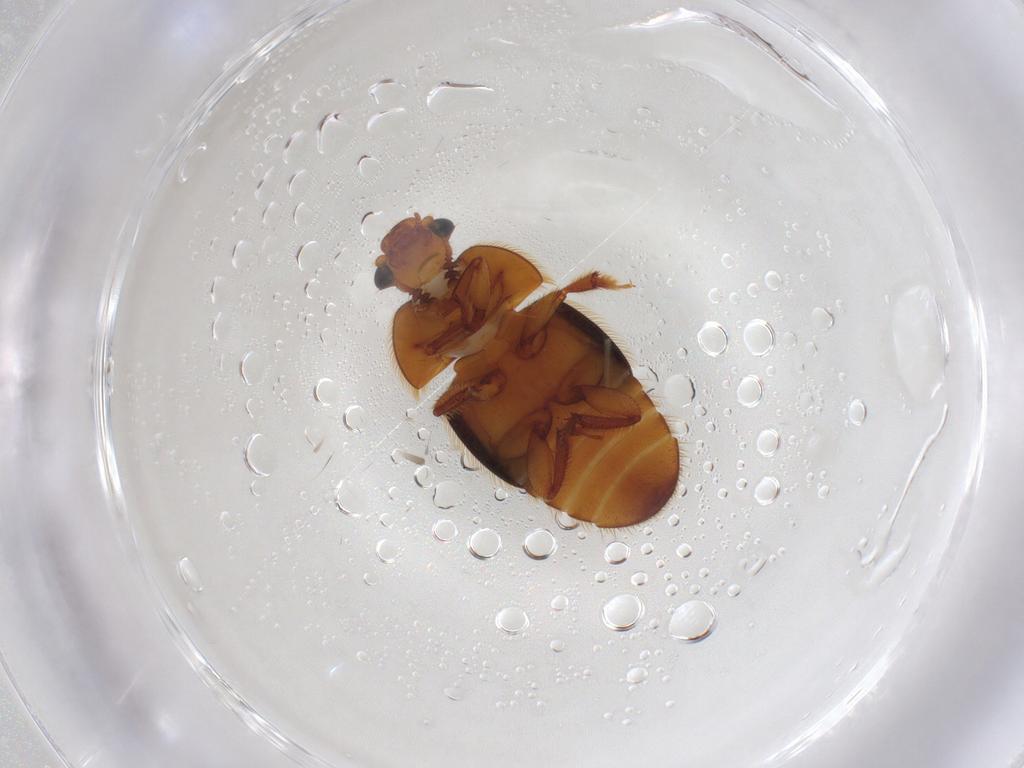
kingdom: Animalia
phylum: Arthropoda
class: Insecta
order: Coleoptera
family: Nitidulidae
